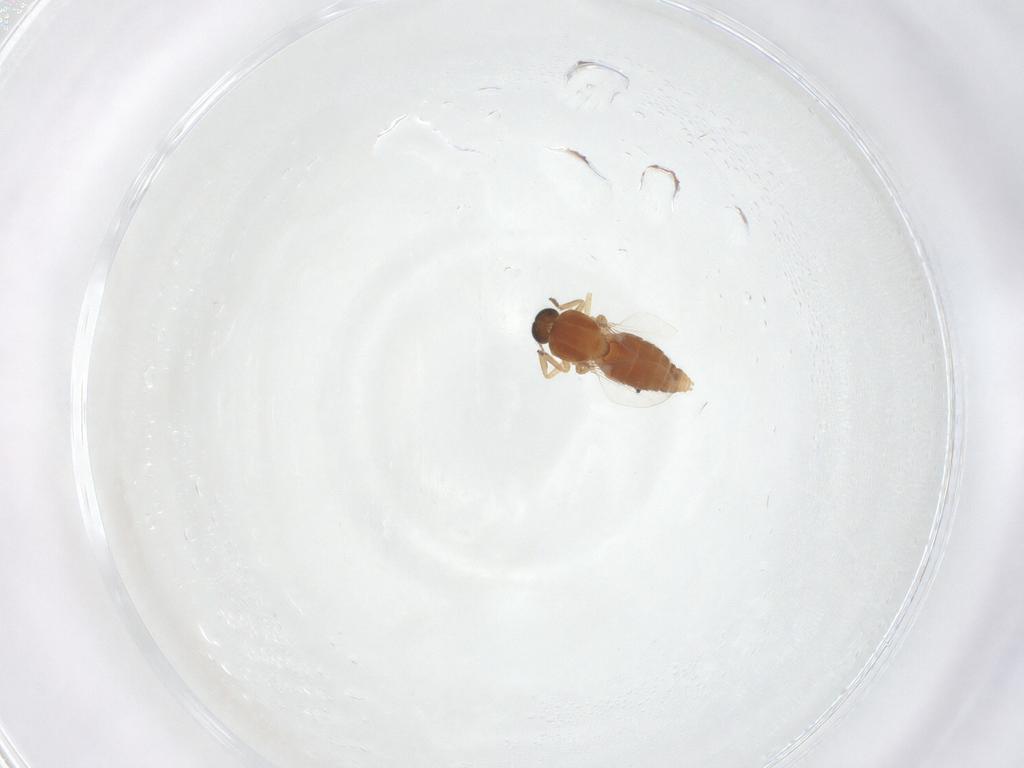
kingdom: Animalia
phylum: Arthropoda
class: Insecta
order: Diptera
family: Ceratopogonidae
